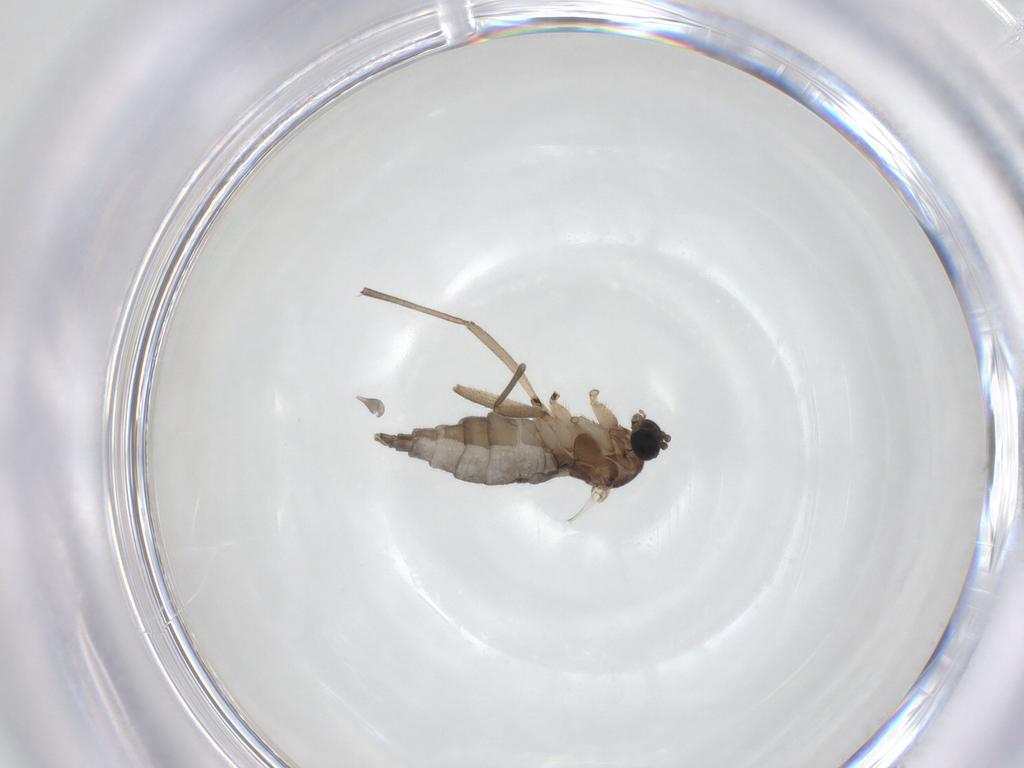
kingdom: Animalia
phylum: Arthropoda
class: Insecta
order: Diptera
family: Sciaridae
